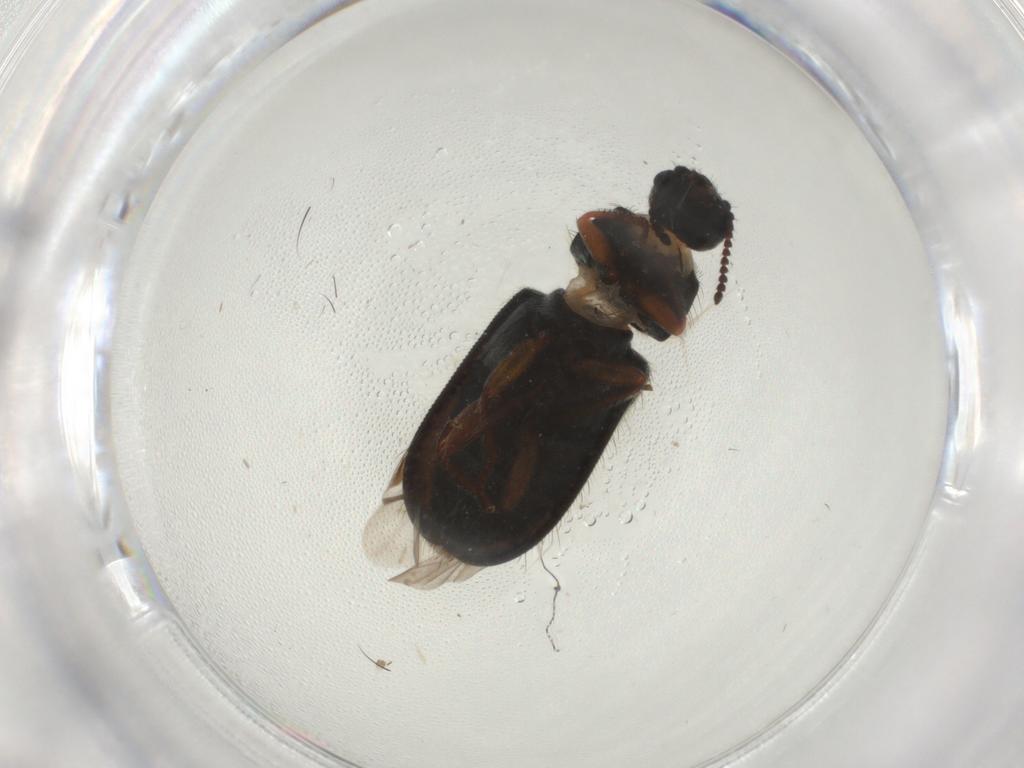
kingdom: Animalia
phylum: Arthropoda
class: Insecta
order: Coleoptera
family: Melyridae
